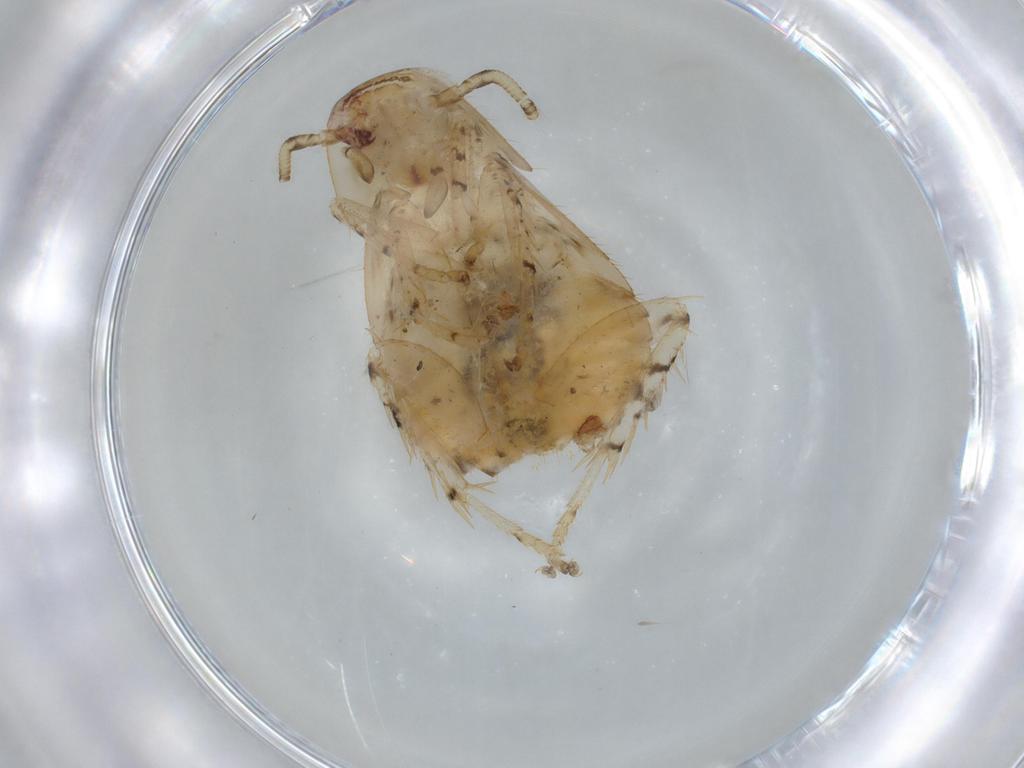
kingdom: Animalia
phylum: Arthropoda
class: Insecta
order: Blattodea
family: Ectobiidae
